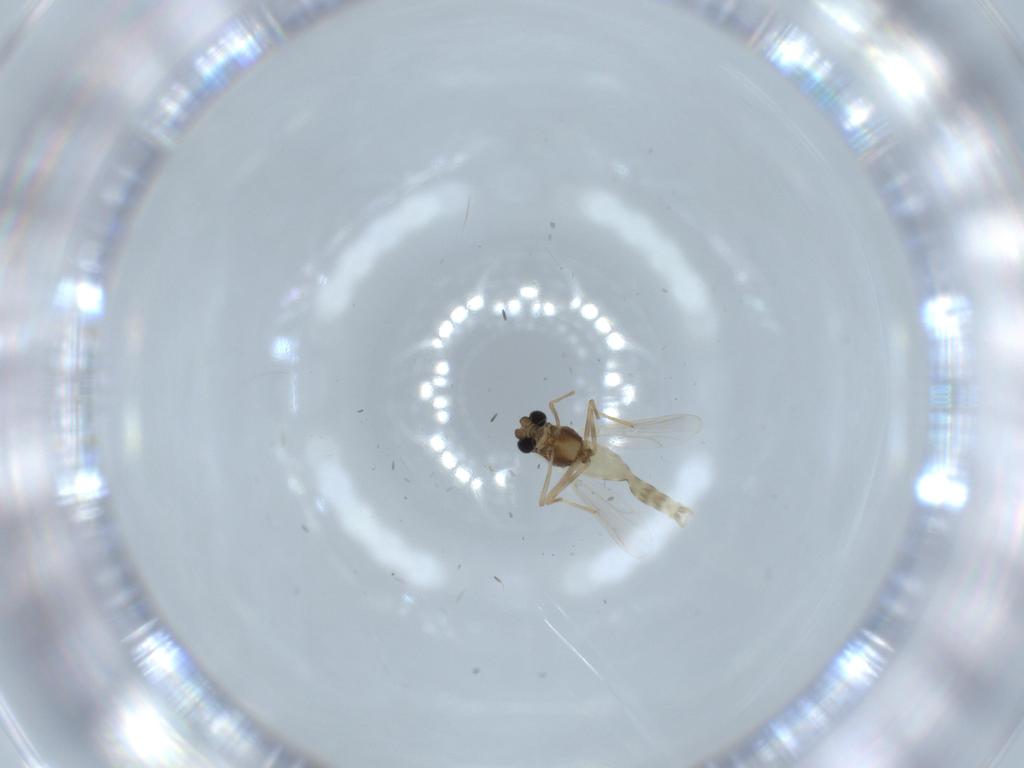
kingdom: Animalia
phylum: Arthropoda
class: Insecta
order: Diptera
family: Chironomidae
